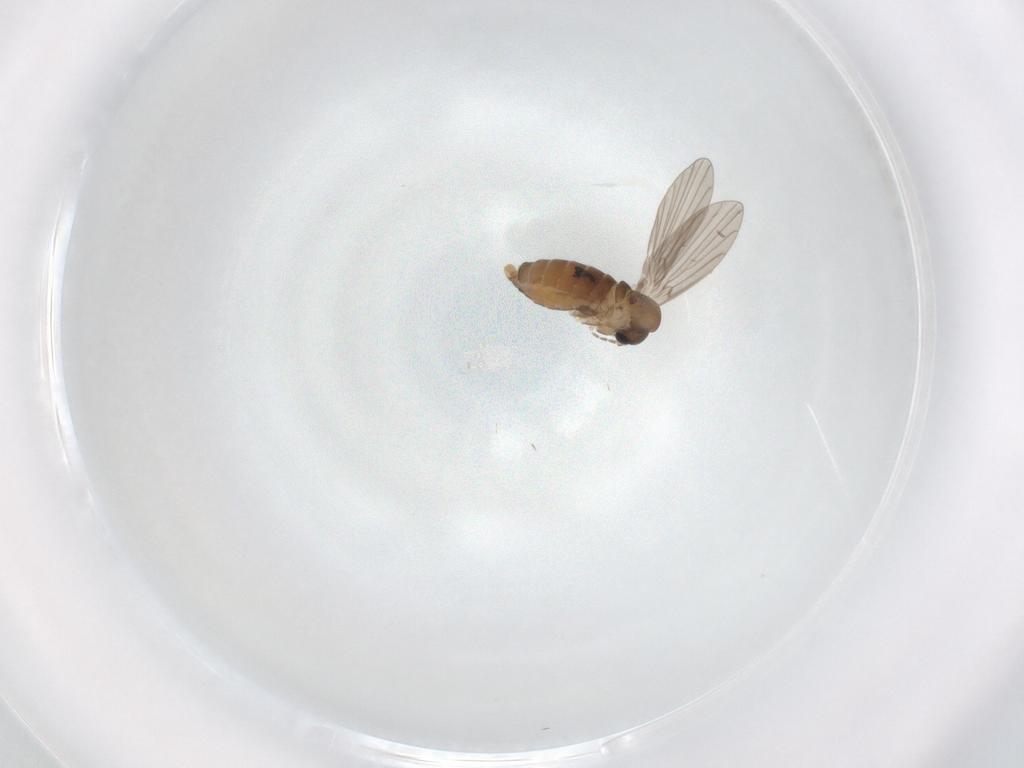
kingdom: Animalia
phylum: Arthropoda
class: Insecta
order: Diptera
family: Ceratopogonidae
